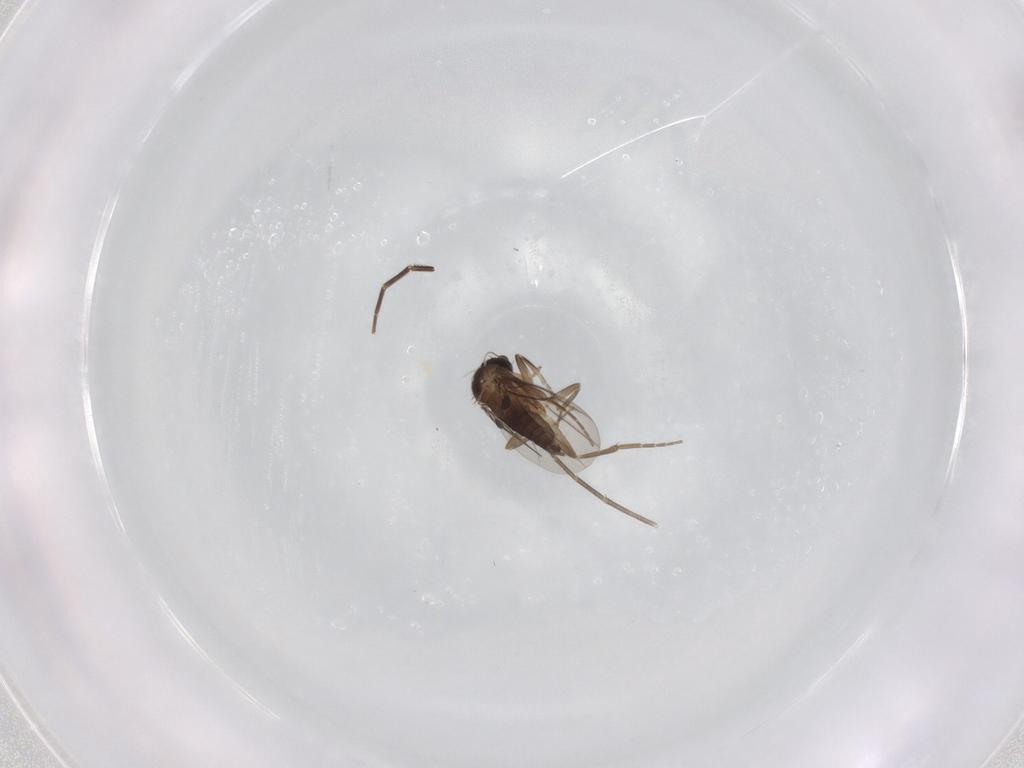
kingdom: Animalia
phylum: Arthropoda
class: Insecta
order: Diptera
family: Phoridae
